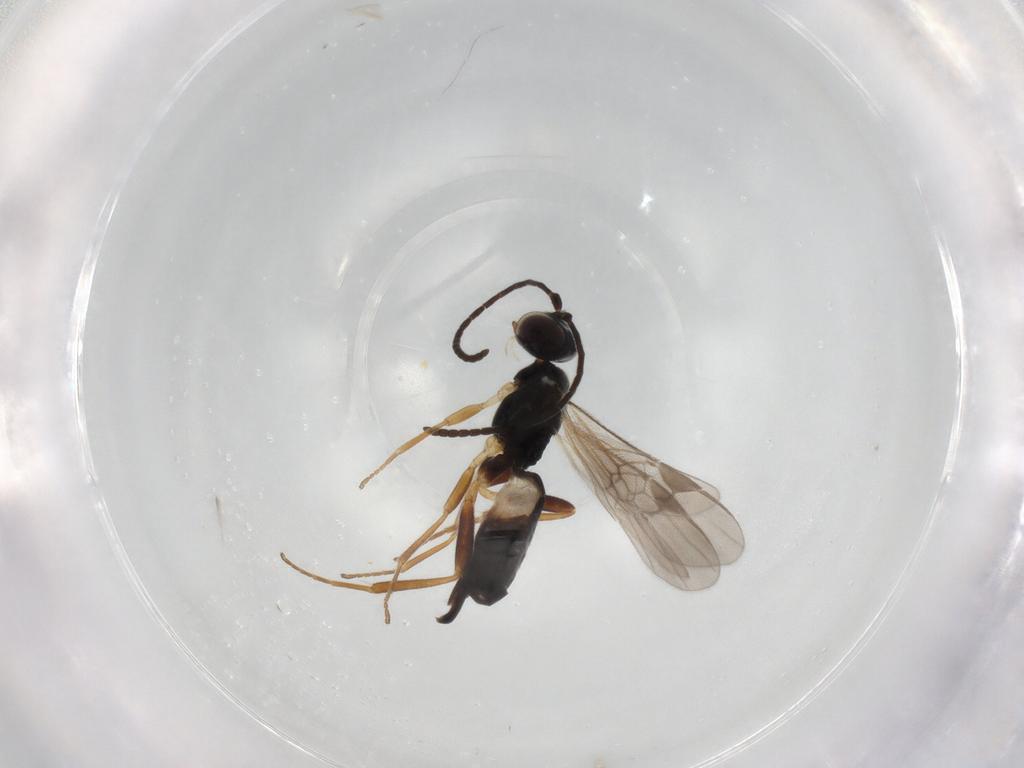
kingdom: Animalia
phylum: Arthropoda
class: Insecta
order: Hymenoptera
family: Braconidae
